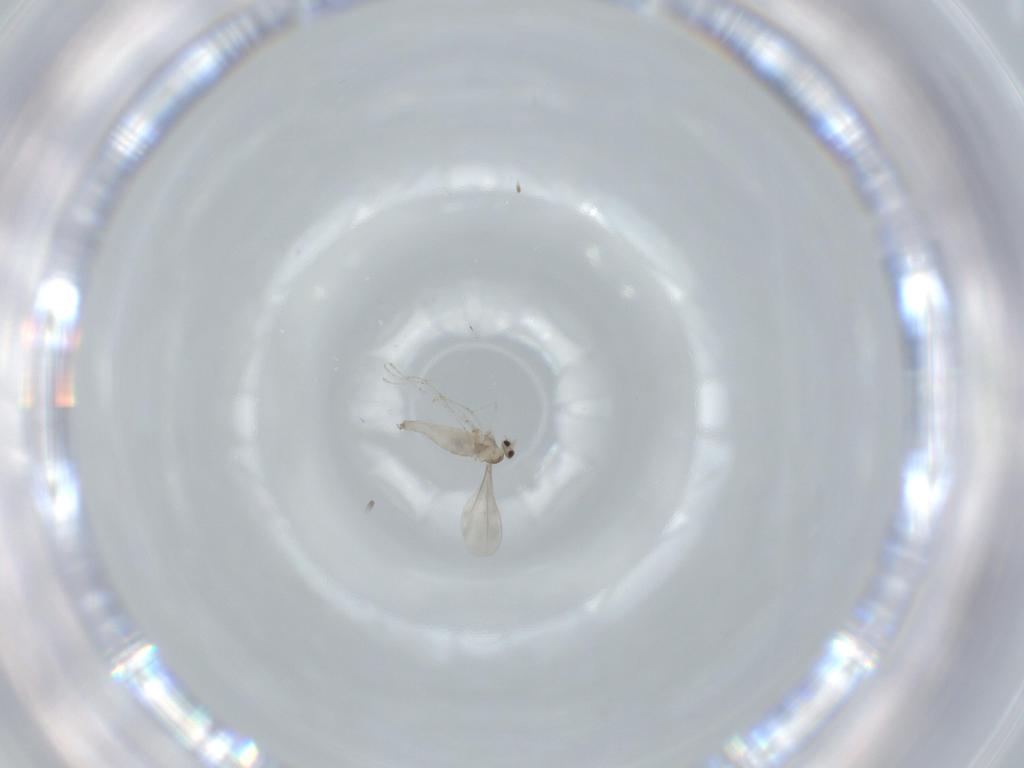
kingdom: Animalia
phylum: Arthropoda
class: Insecta
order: Diptera
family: Cecidomyiidae
